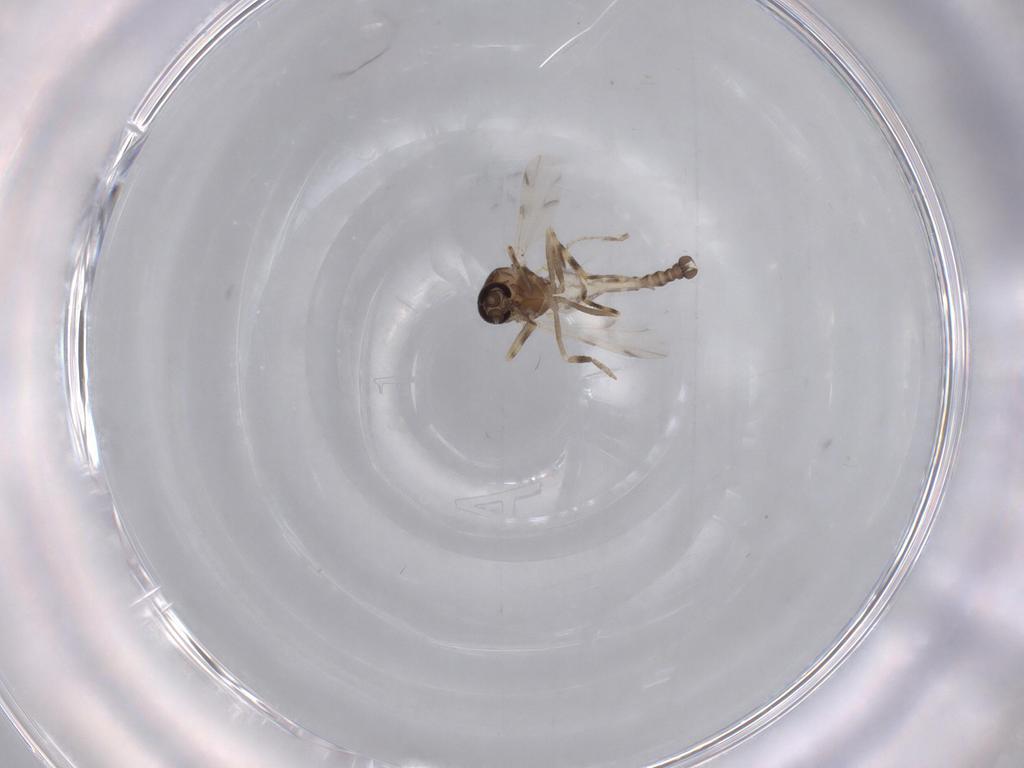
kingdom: Animalia
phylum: Arthropoda
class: Insecta
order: Diptera
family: Ceratopogonidae
